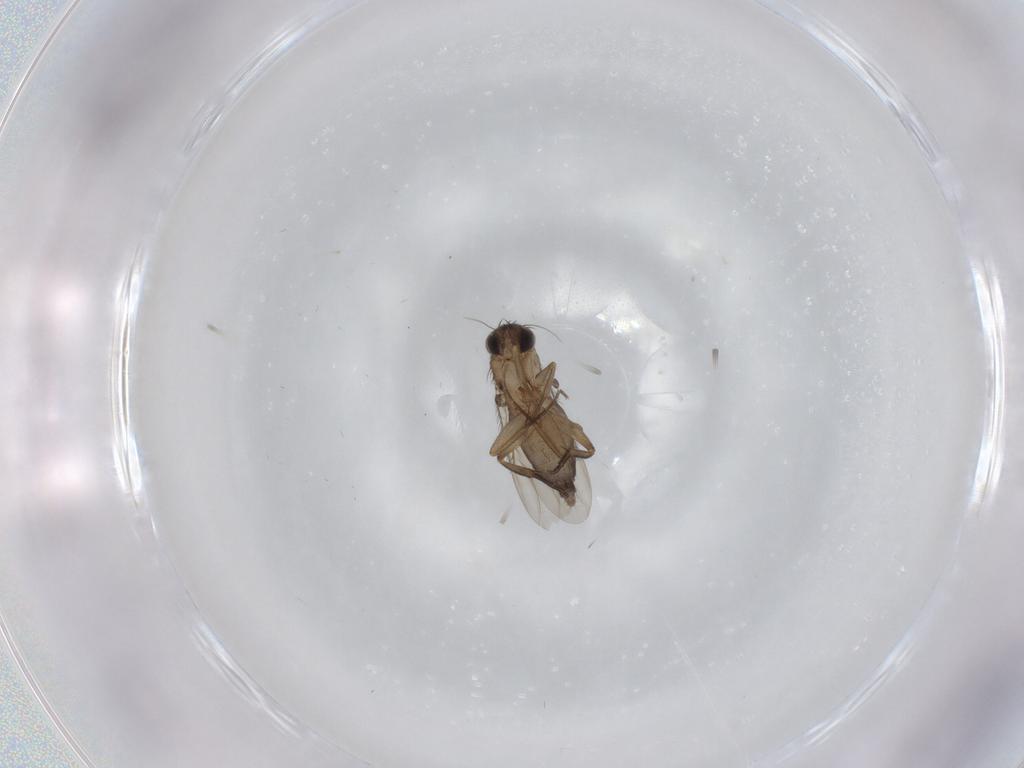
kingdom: Animalia
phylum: Arthropoda
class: Insecta
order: Diptera
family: Phoridae
